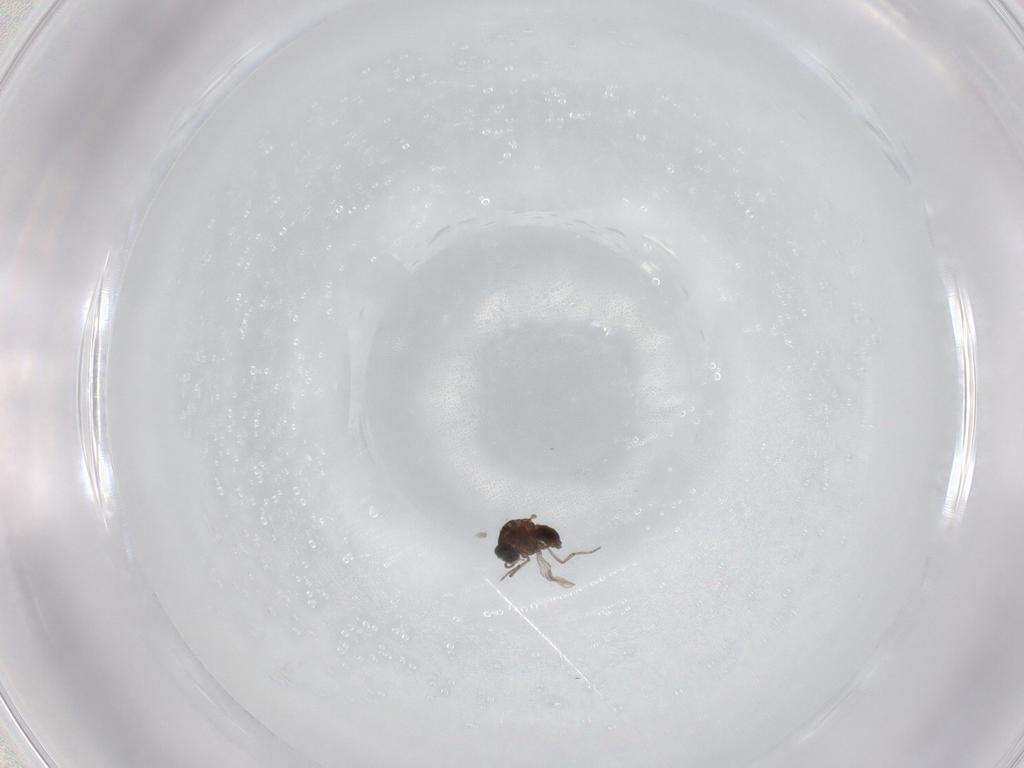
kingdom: Animalia
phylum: Arthropoda
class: Insecta
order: Diptera
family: Ceratopogonidae
